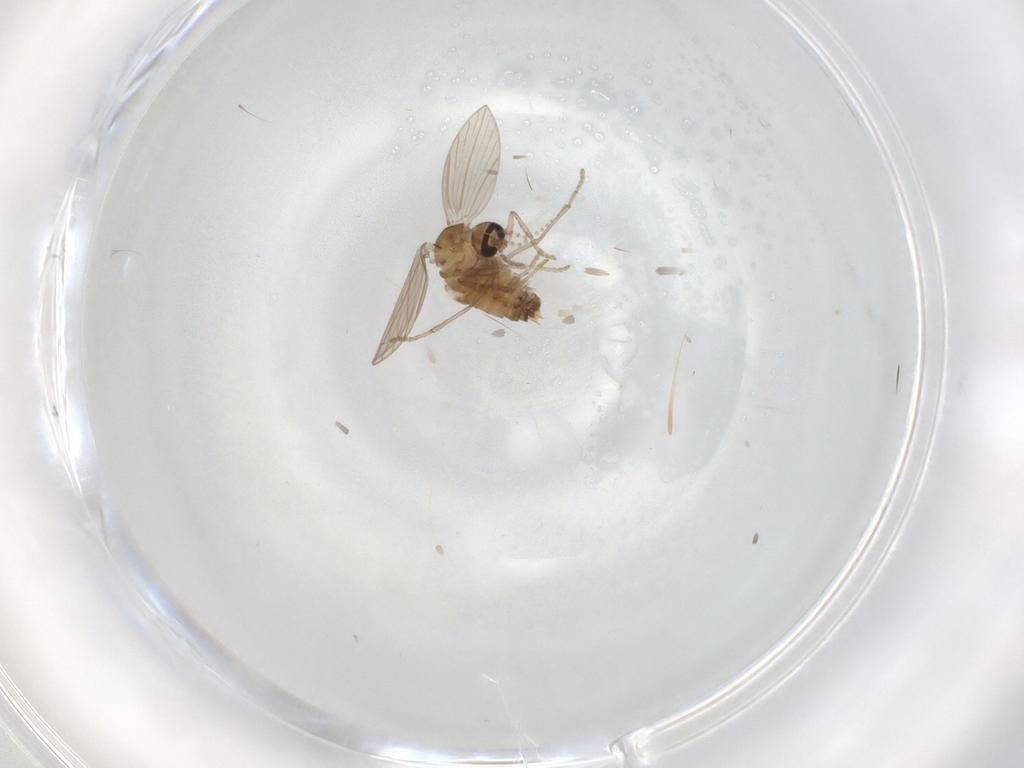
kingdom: Animalia
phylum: Arthropoda
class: Insecta
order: Diptera
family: Psychodidae
